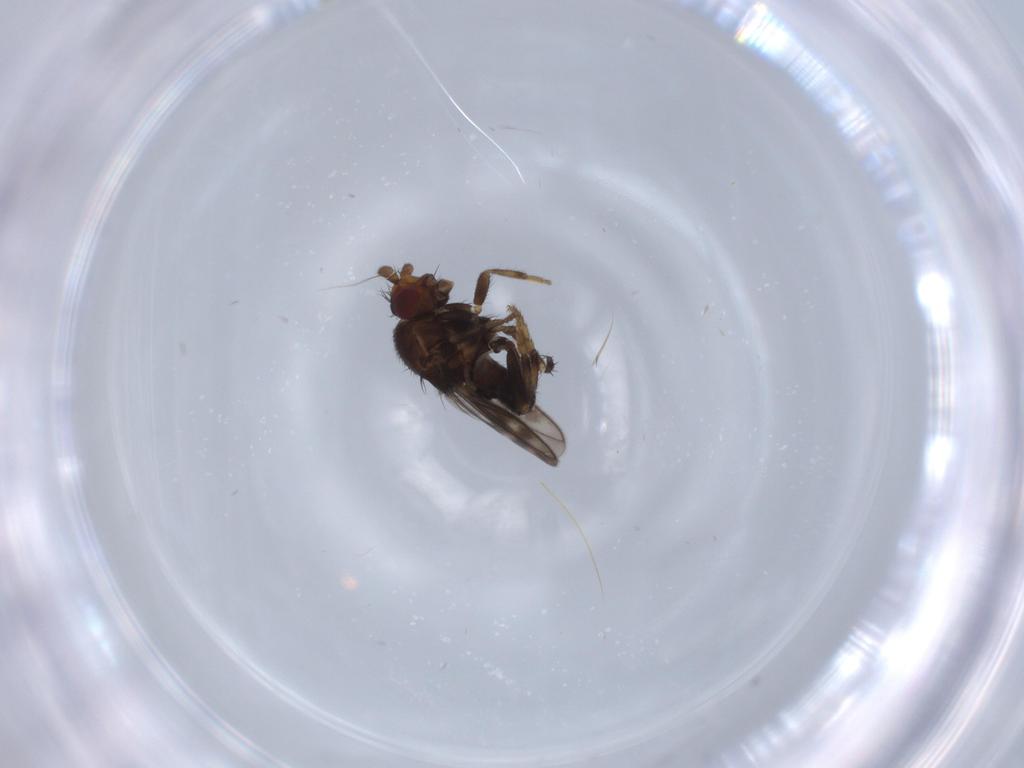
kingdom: Animalia
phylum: Arthropoda
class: Insecta
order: Diptera
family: Sphaeroceridae
